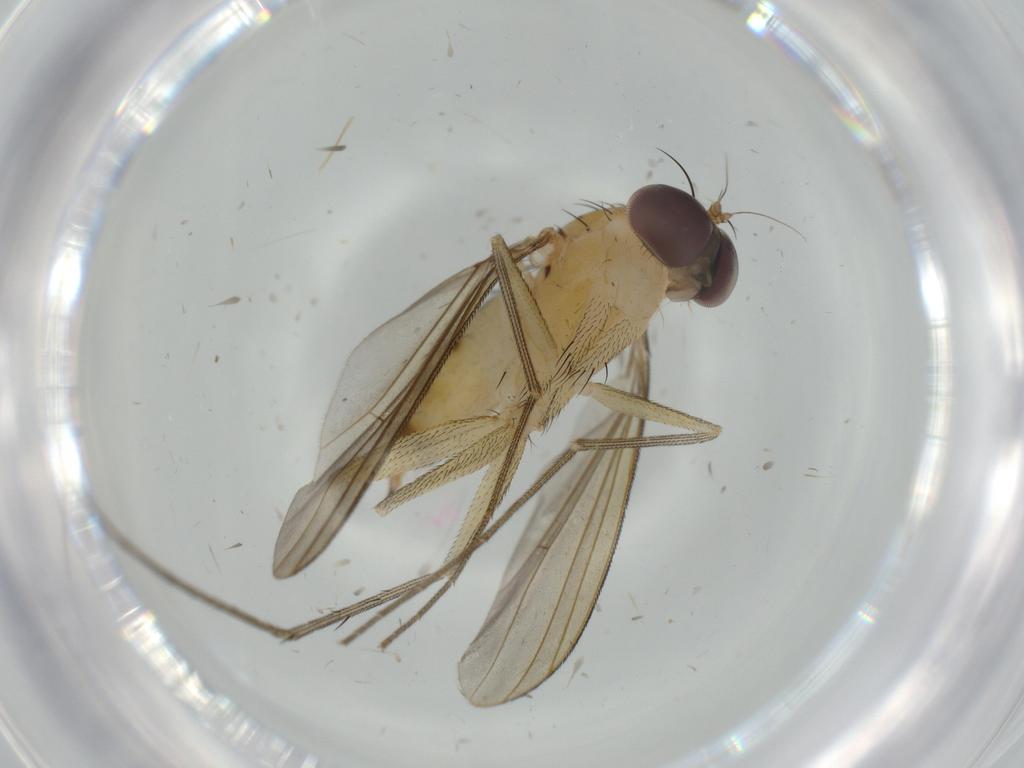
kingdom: Animalia
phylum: Arthropoda
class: Insecta
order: Diptera
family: Dolichopodidae
